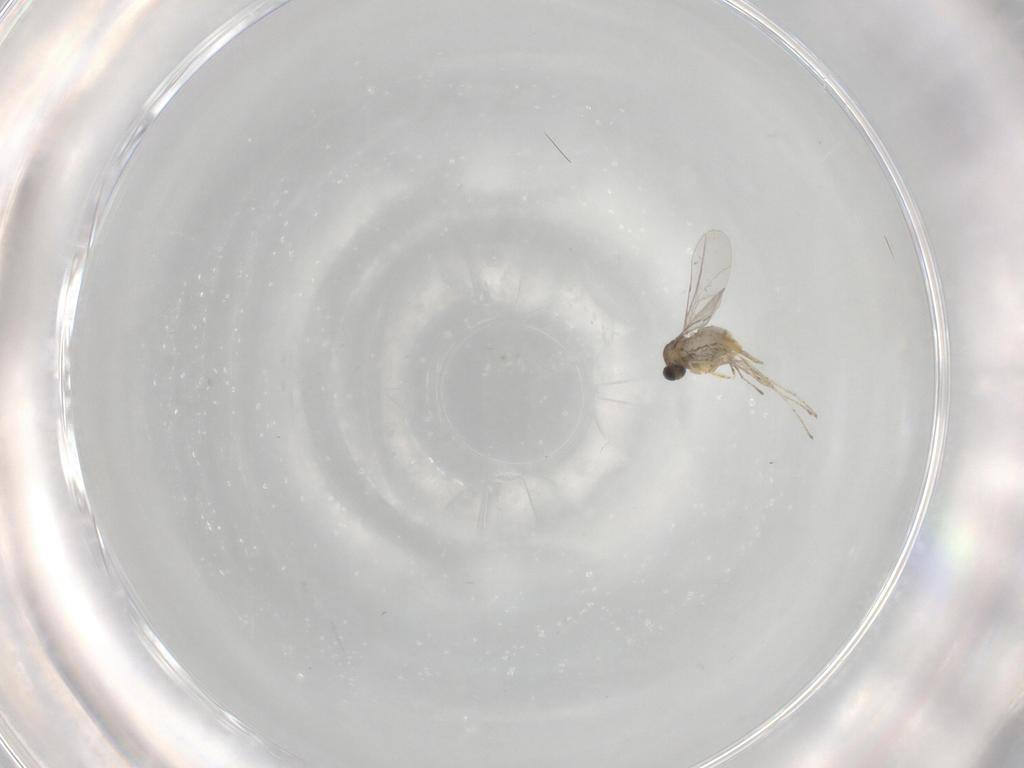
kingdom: Animalia
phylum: Arthropoda
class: Insecta
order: Diptera
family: Cecidomyiidae
